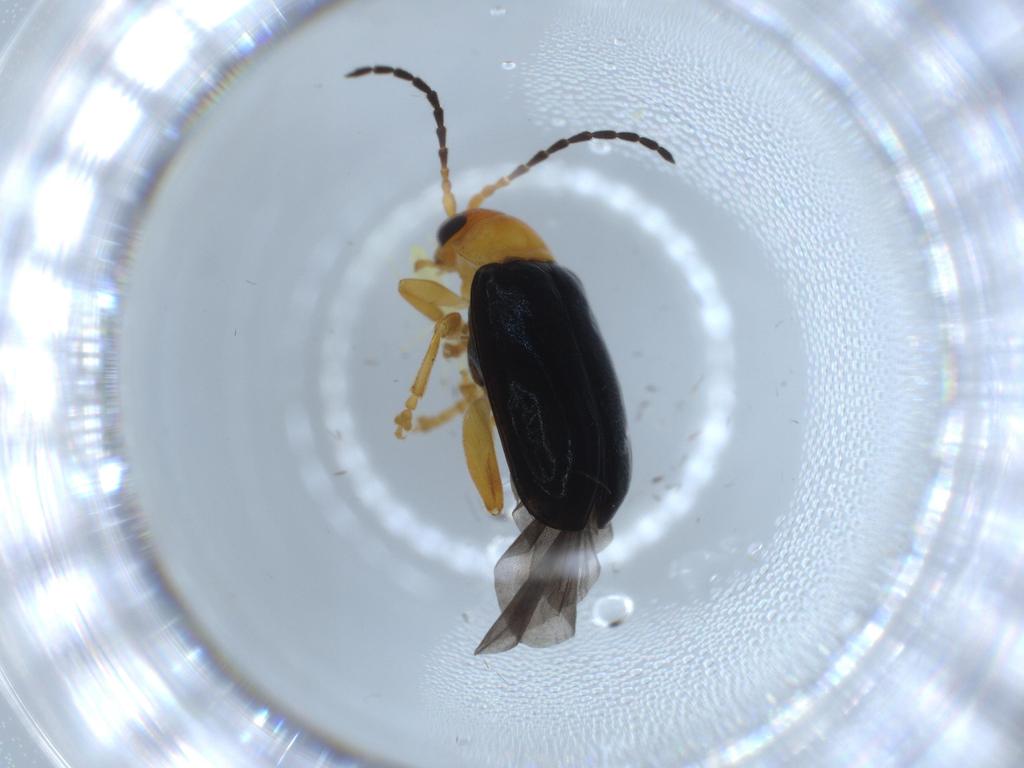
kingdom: Animalia
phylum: Arthropoda
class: Insecta
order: Coleoptera
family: Chrysomelidae
